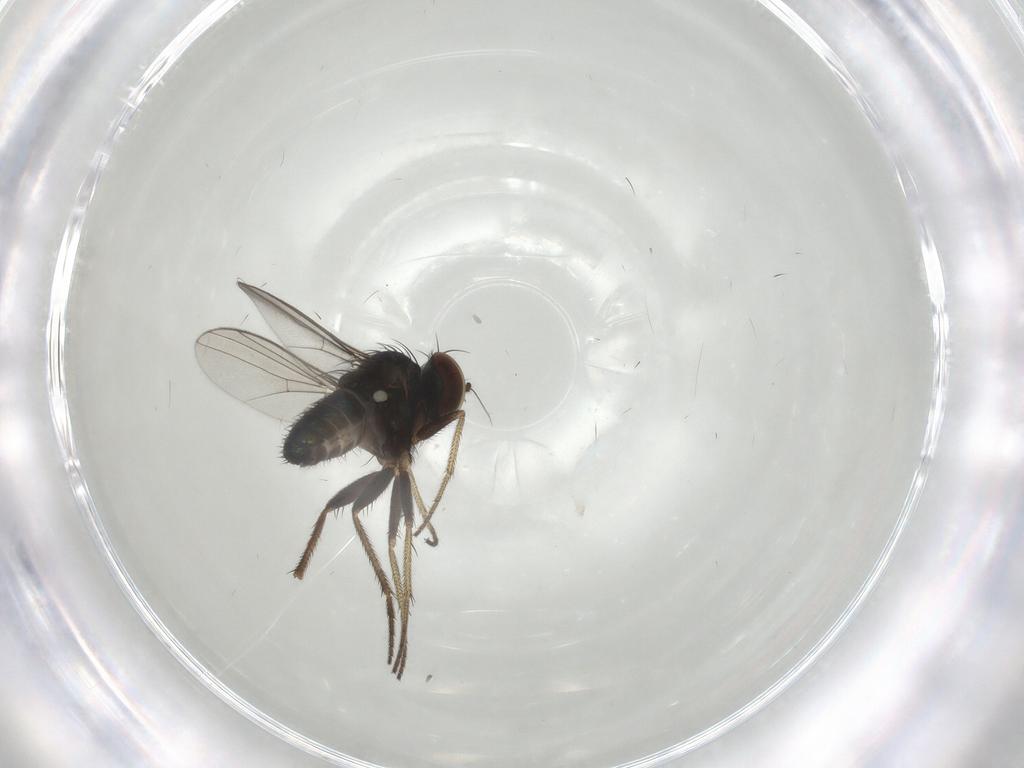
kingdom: Animalia
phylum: Arthropoda
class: Insecta
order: Diptera
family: Dolichopodidae
